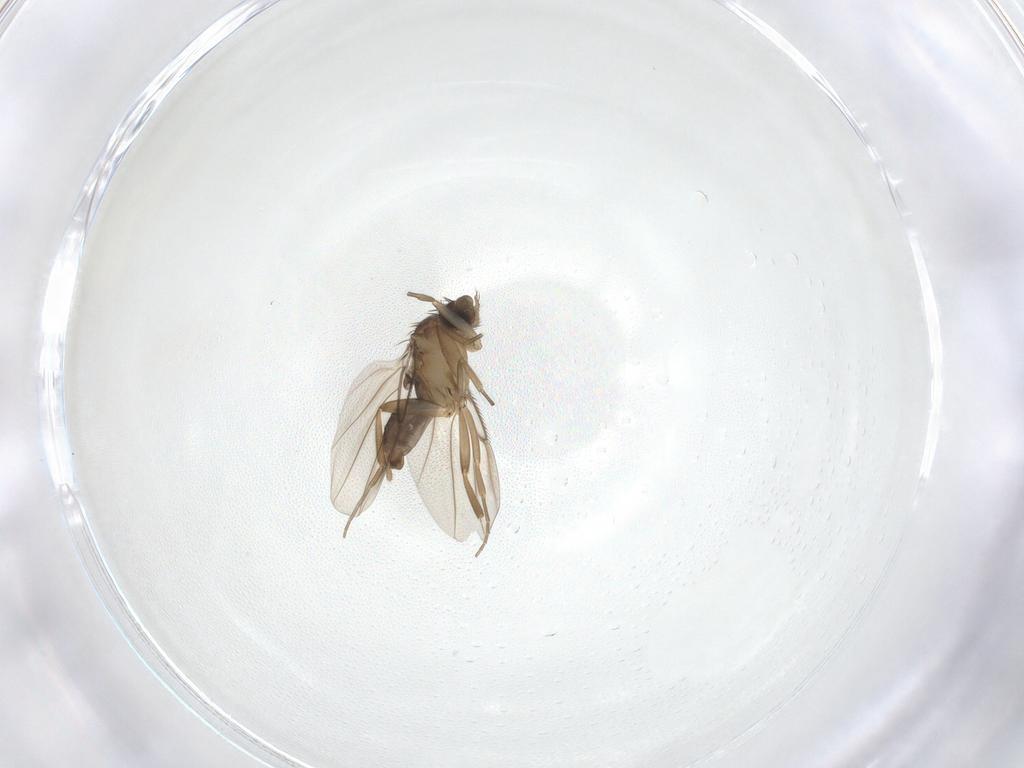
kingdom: Animalia
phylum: Arthropoda
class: Insecta
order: Diptera
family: Cecidomyiidae
